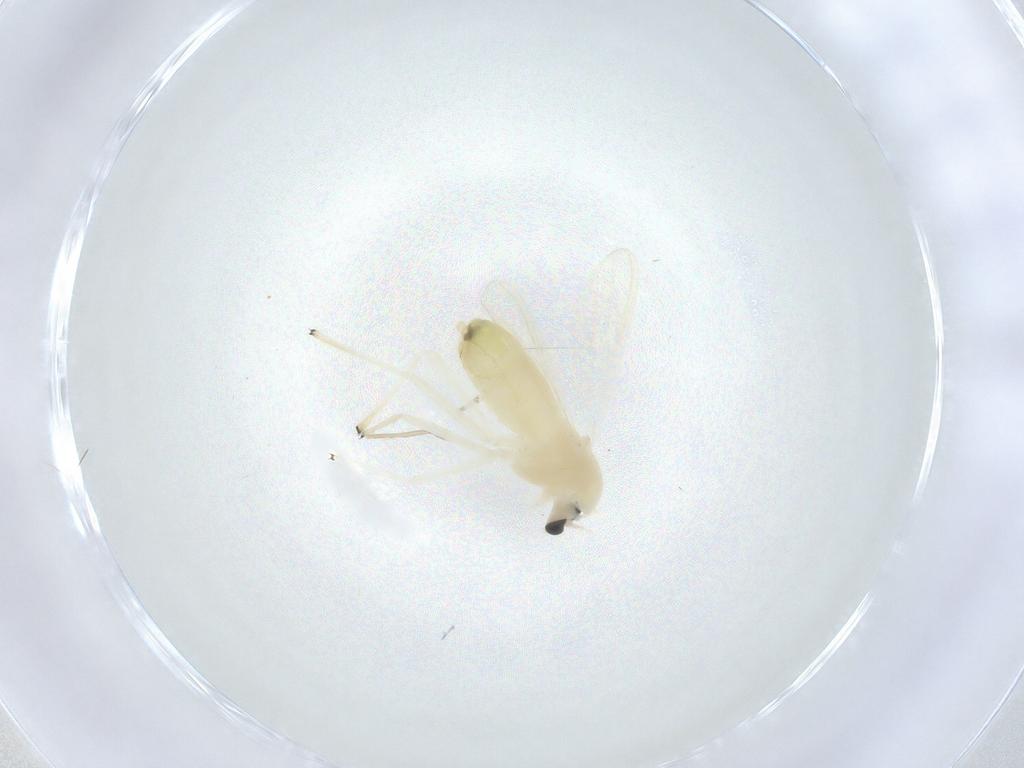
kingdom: Animalia
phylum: Arthropoda
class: Insecta
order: Diptera
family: Chironomidae
